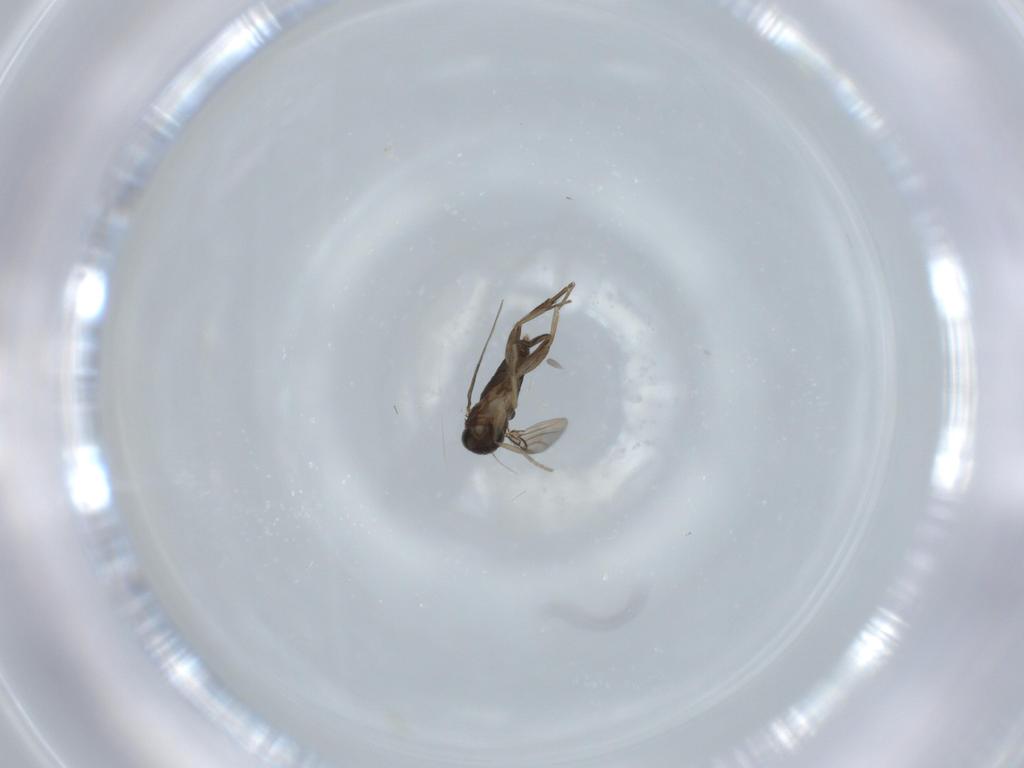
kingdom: Animalia
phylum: Arthropoda
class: Insecta
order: Diptera
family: Phoridae
